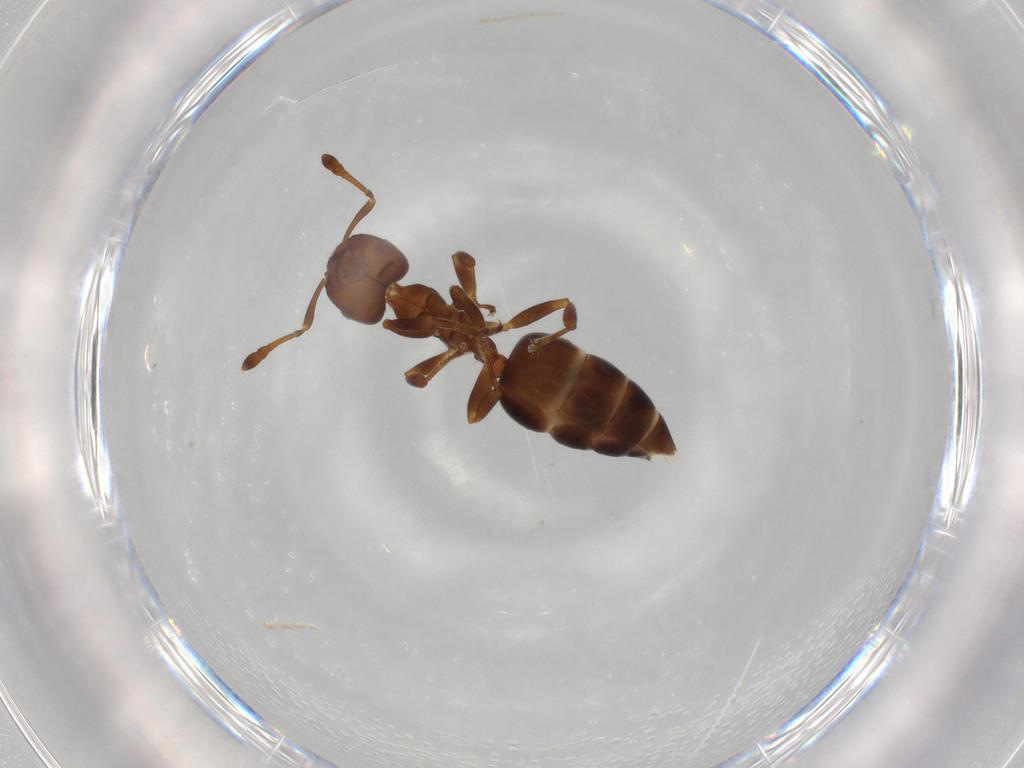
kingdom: Animalia
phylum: Arthropoda
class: Insecta
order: Hymenoptera
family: Formicidae
